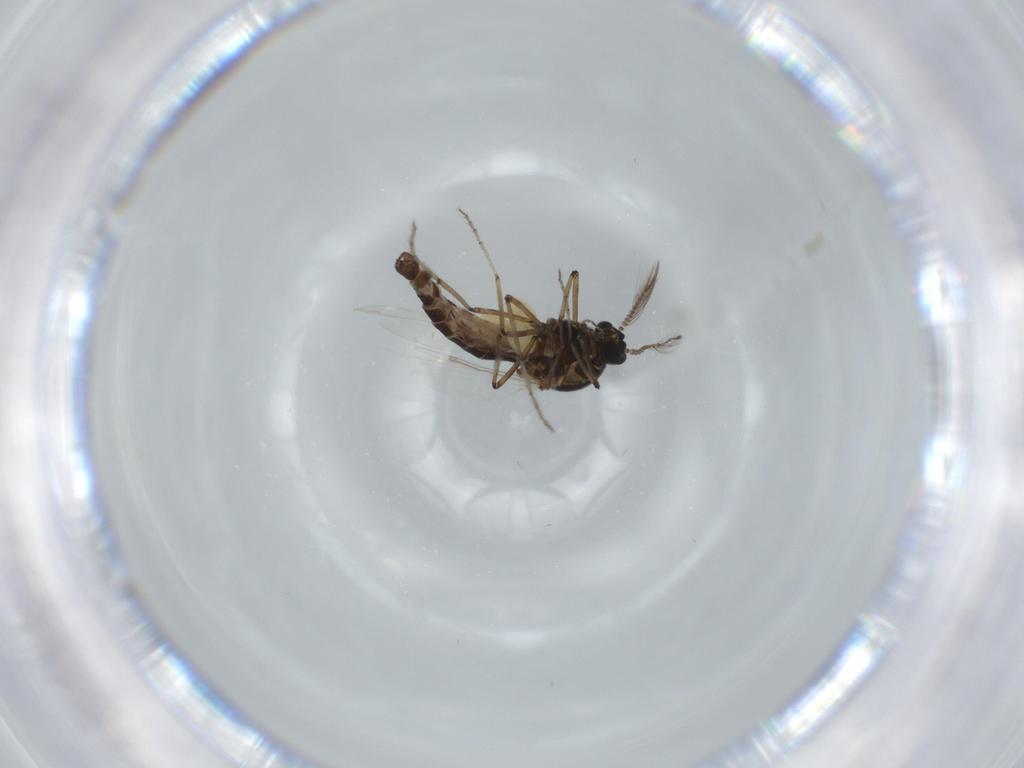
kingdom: Animalia
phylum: Arthropoda
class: Insecta
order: Diptera
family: Ceratopogonidae
